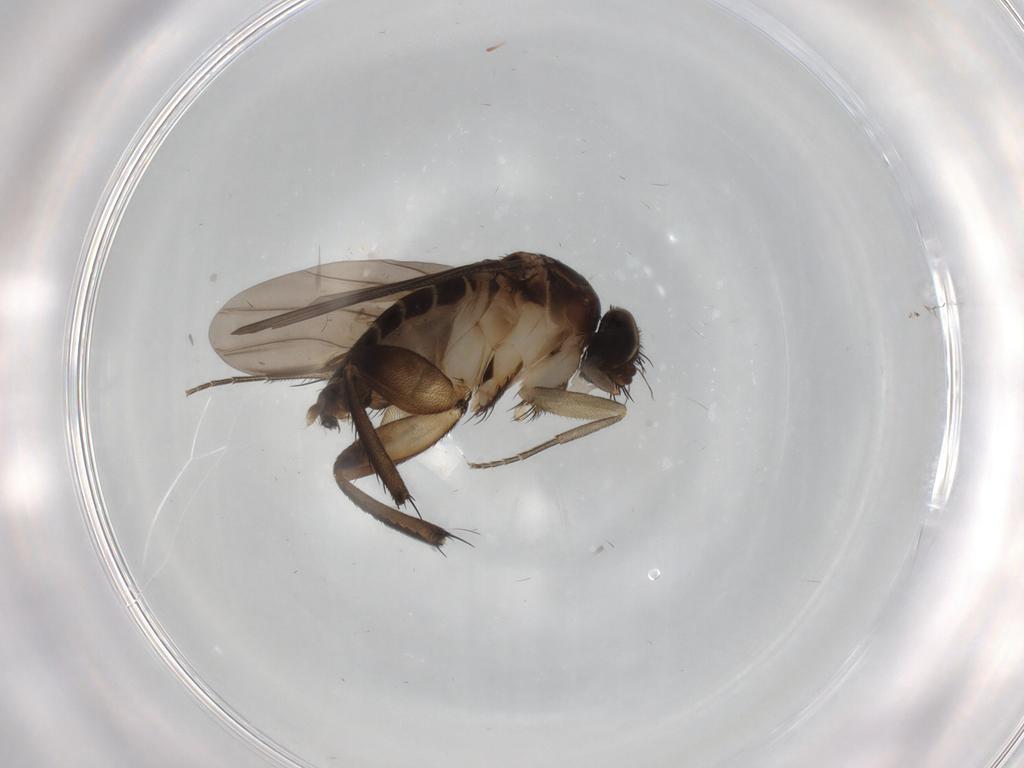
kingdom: Animalia
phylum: Arthropoda
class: Insecta
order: Diptera
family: Phoridae
